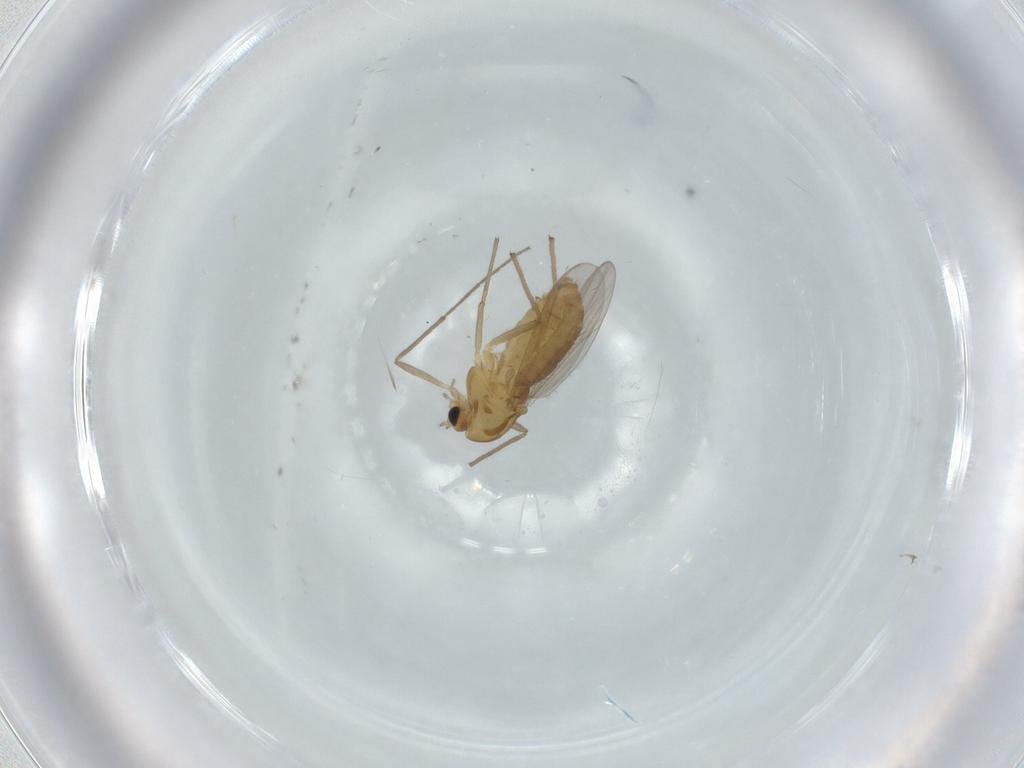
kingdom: Animalia
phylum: Arthropoda
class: Insecta
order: Diptera
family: Chironomidae
